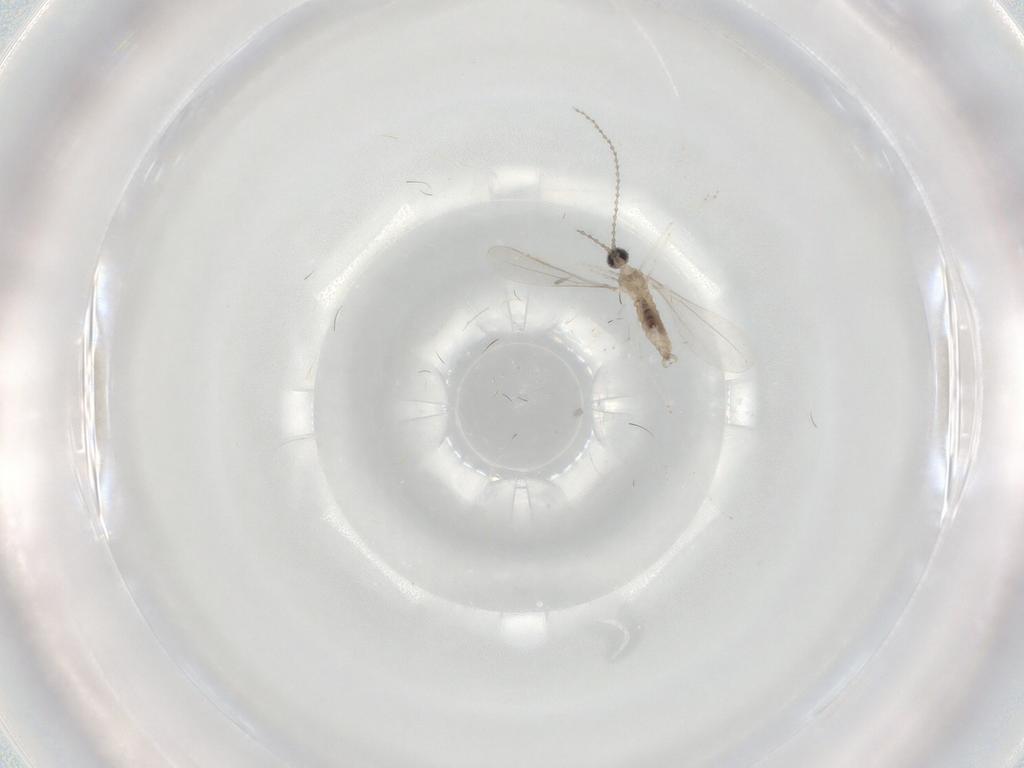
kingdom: Animalia
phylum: Arthropoda
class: Insecta
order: Diptera
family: Cecidomyiidae
